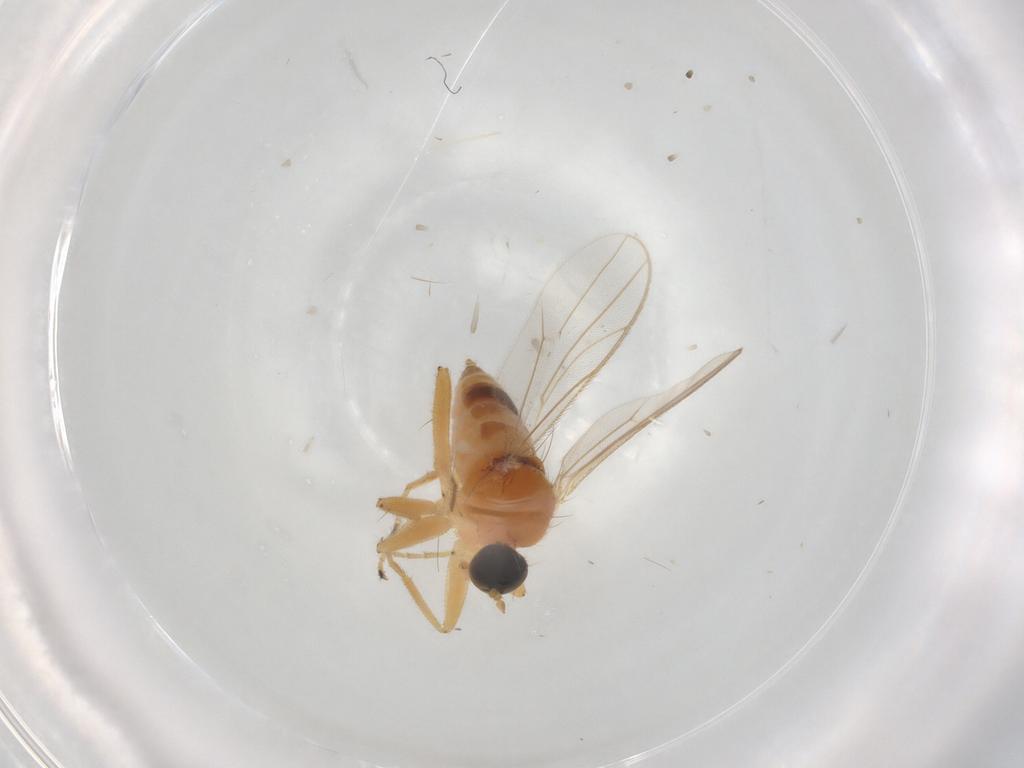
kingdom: Animalia
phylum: Arthropoda
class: Insecta
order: Diptera
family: Hybotidae
